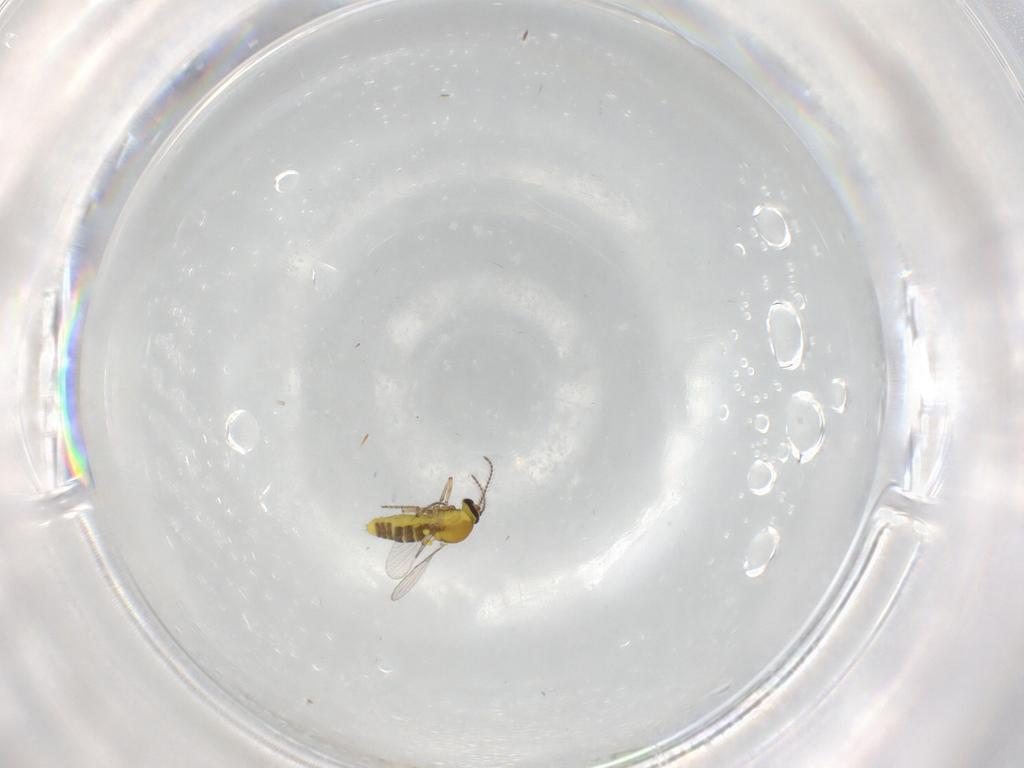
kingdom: Animalia
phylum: Arthropoda
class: Insecta
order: Diptera
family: Ceratopogonidae
